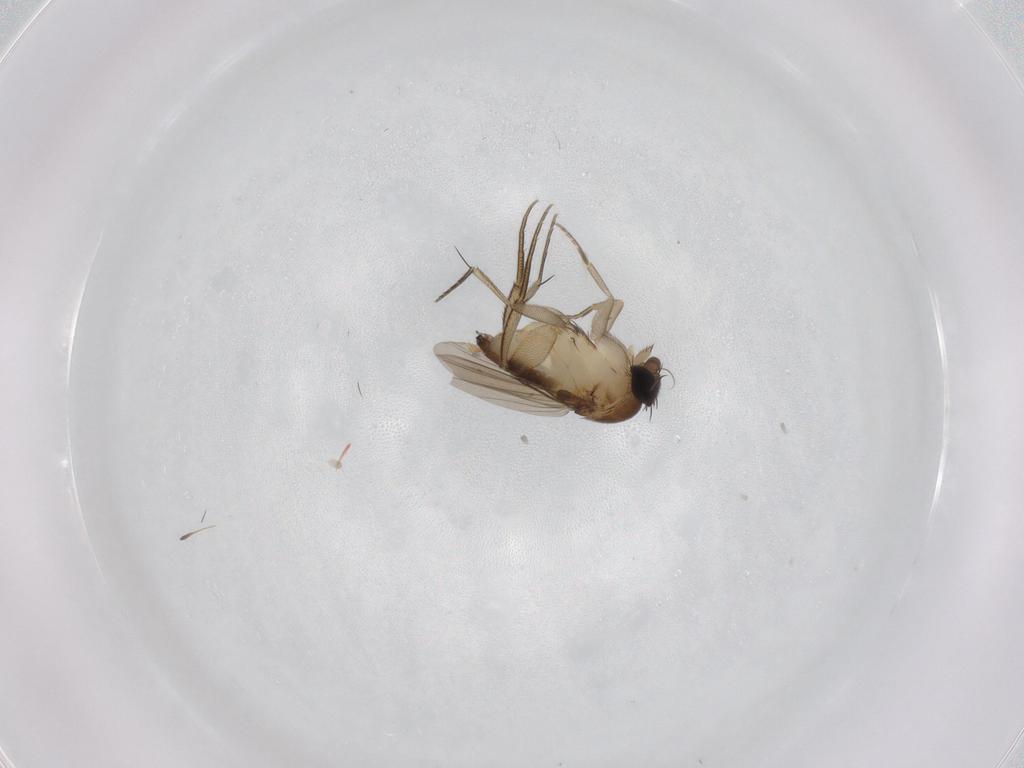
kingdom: Animalia
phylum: Arthropoda
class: Insecta
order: Diptera
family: Phoridae
